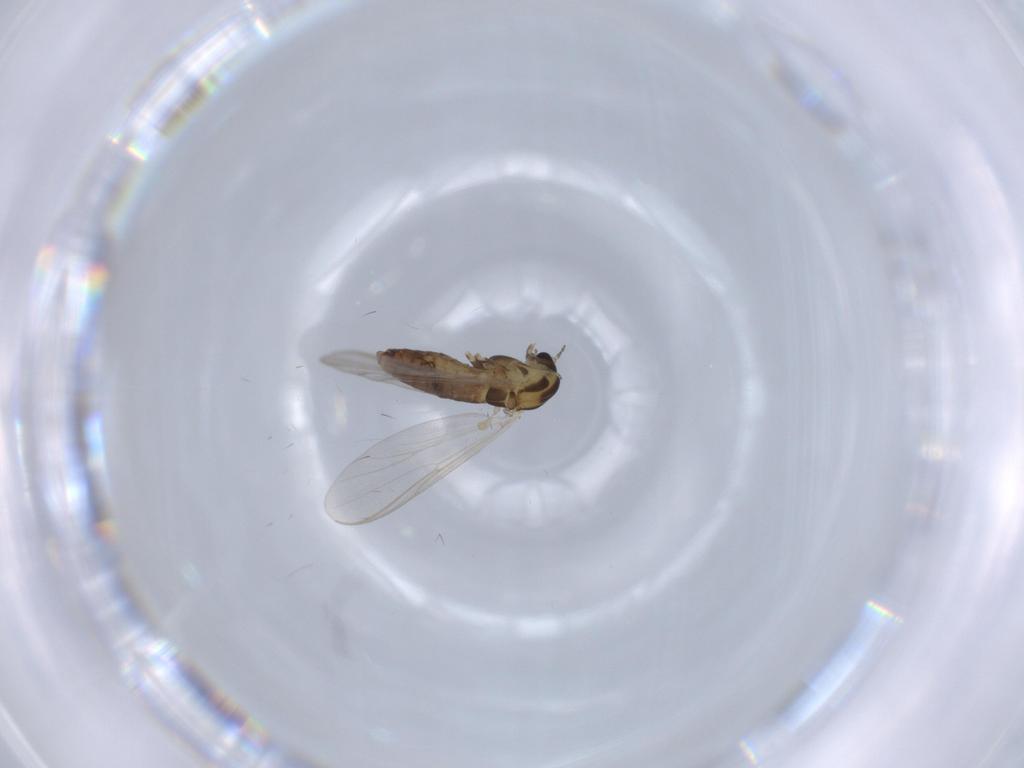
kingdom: Animalia
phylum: Arthropoda
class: Insecta
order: Diptera
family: Chironomidae
